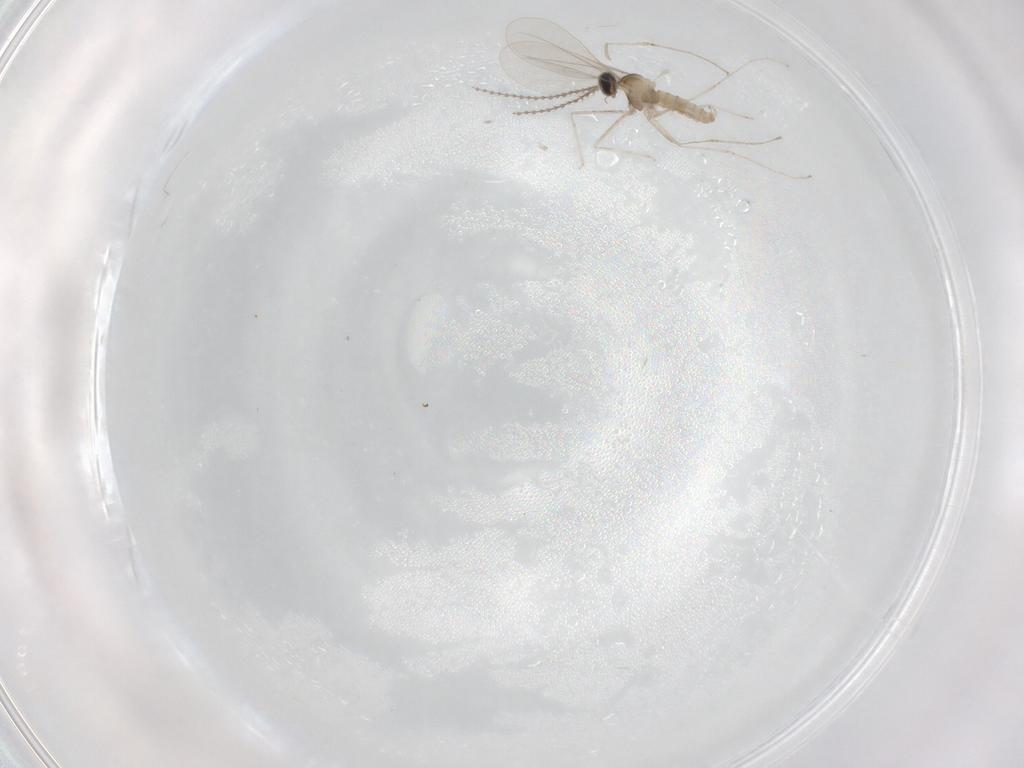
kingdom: Animalia
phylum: Arthropoda
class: Insecta
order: Diptera
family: Cecidomyiidae
